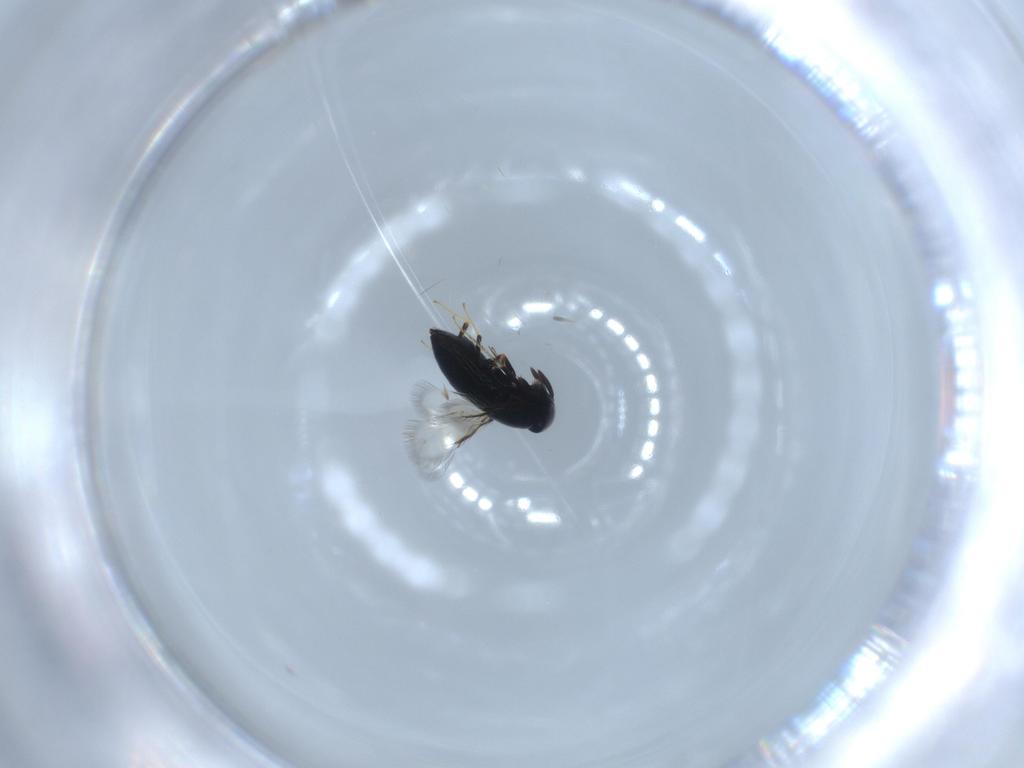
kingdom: Animalia
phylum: Arthropoda
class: Insecta
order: Hymenoptera
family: Signiphoridae
